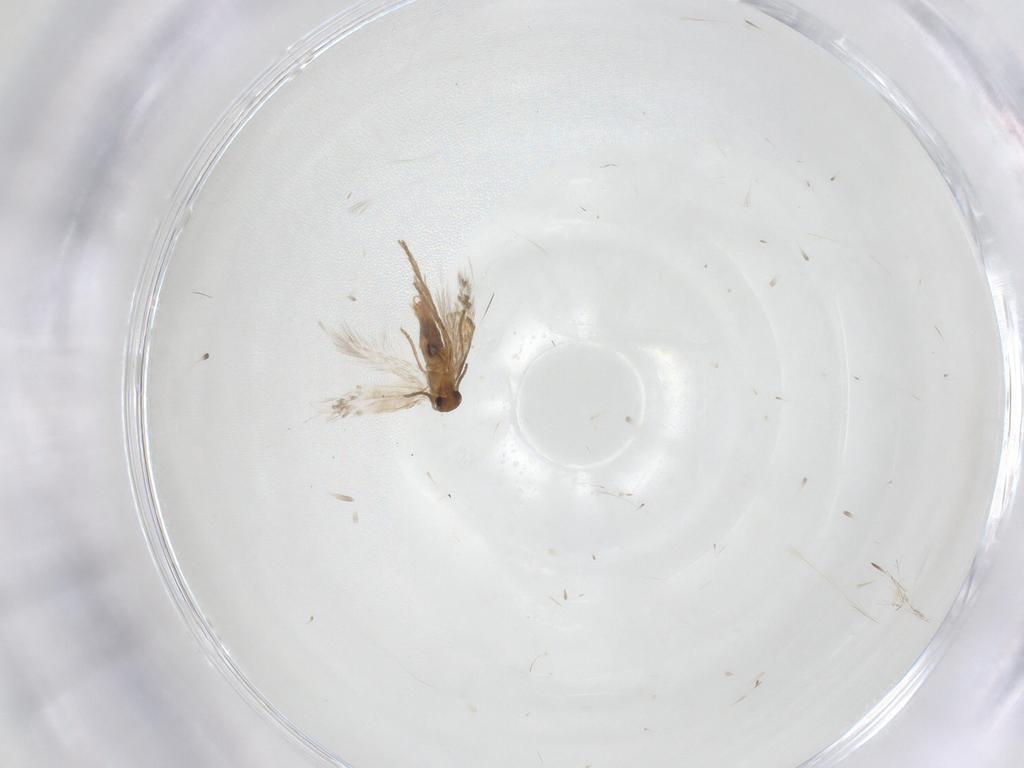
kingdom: Animalia
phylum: Arthropoda
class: Insecta
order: Lepidoptera
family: Heliozelidae
